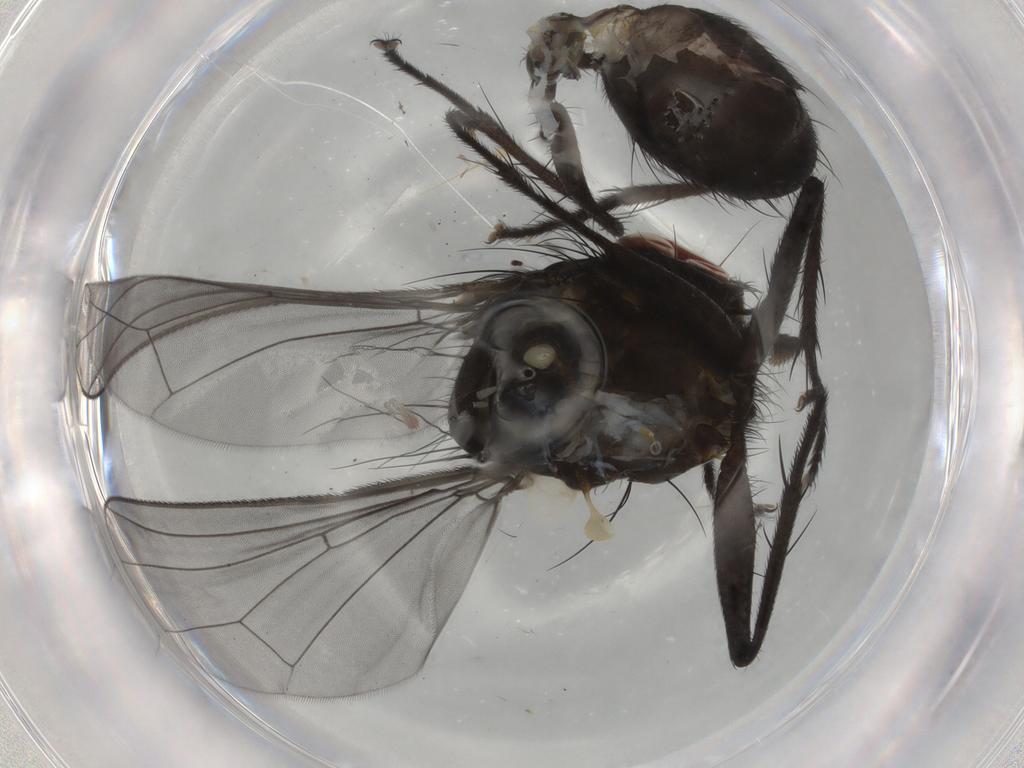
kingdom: Animalia
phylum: Arthropoda
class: Insecta
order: Diptera
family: Muscidae
